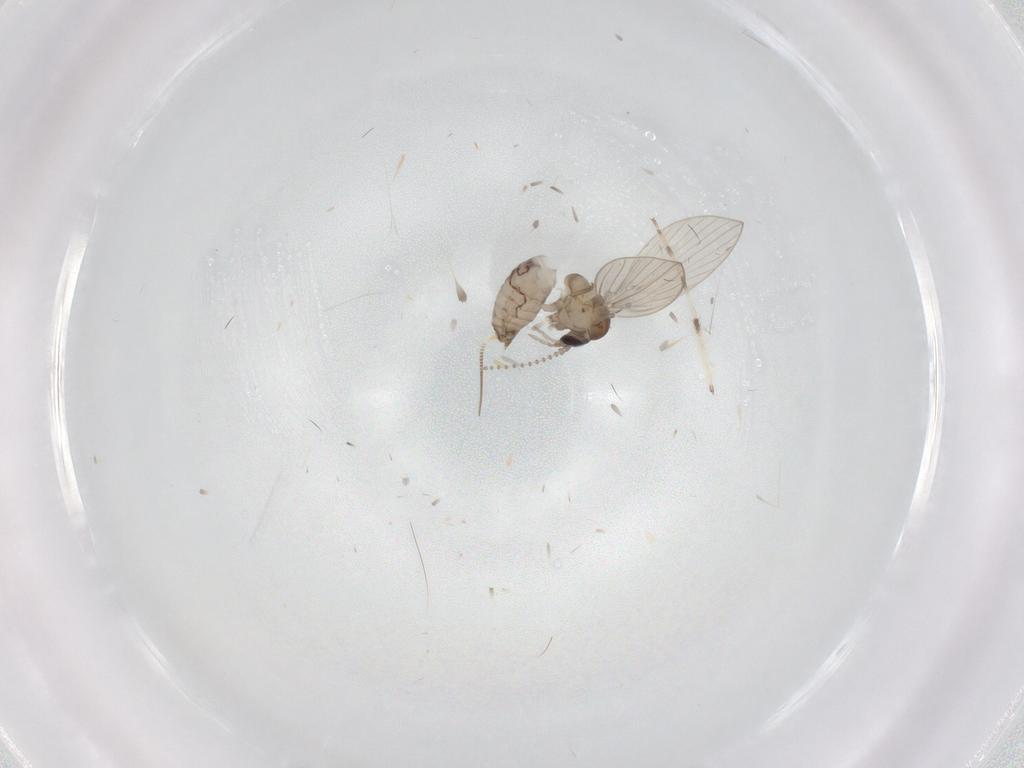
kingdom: Animalia
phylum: Arthropoda
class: Insecta
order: Diptera
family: Psychodidae
